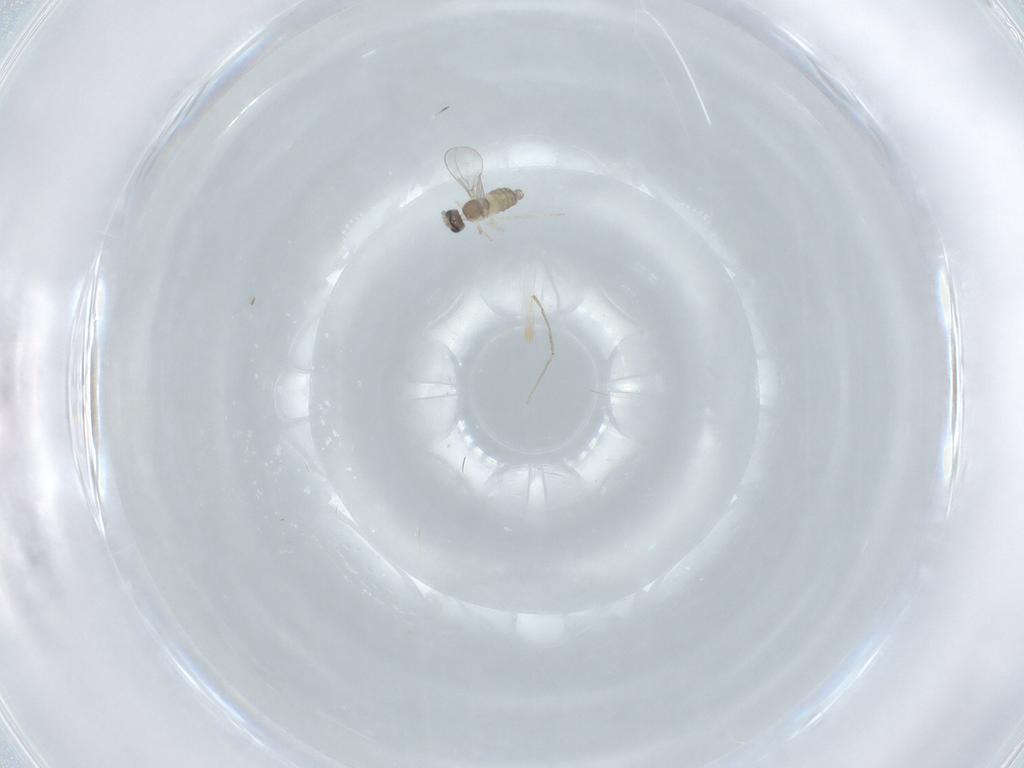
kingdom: Animalia
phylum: Arthropoda
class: Insecta
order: Diptera
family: Cecidomyiidae
